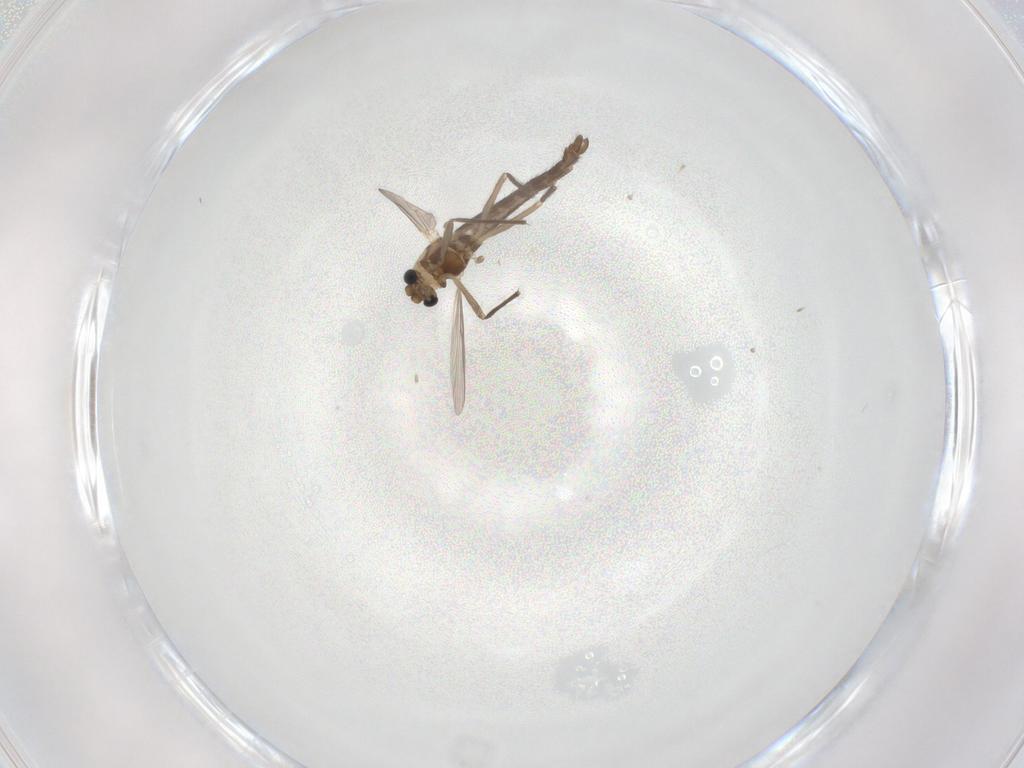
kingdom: Animalia
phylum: Arthropoda
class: Insecta
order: Diptera
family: Chironomidae
